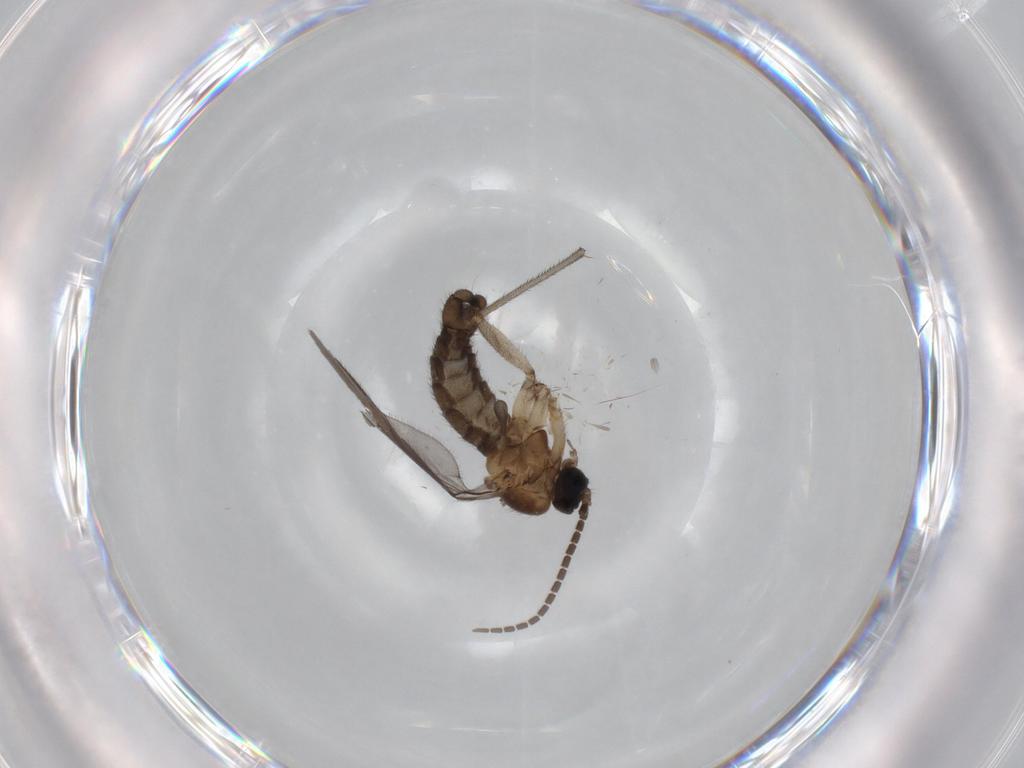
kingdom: Animalia
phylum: Arthropoda
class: Insecta
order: Diptera
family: Sciaridae
